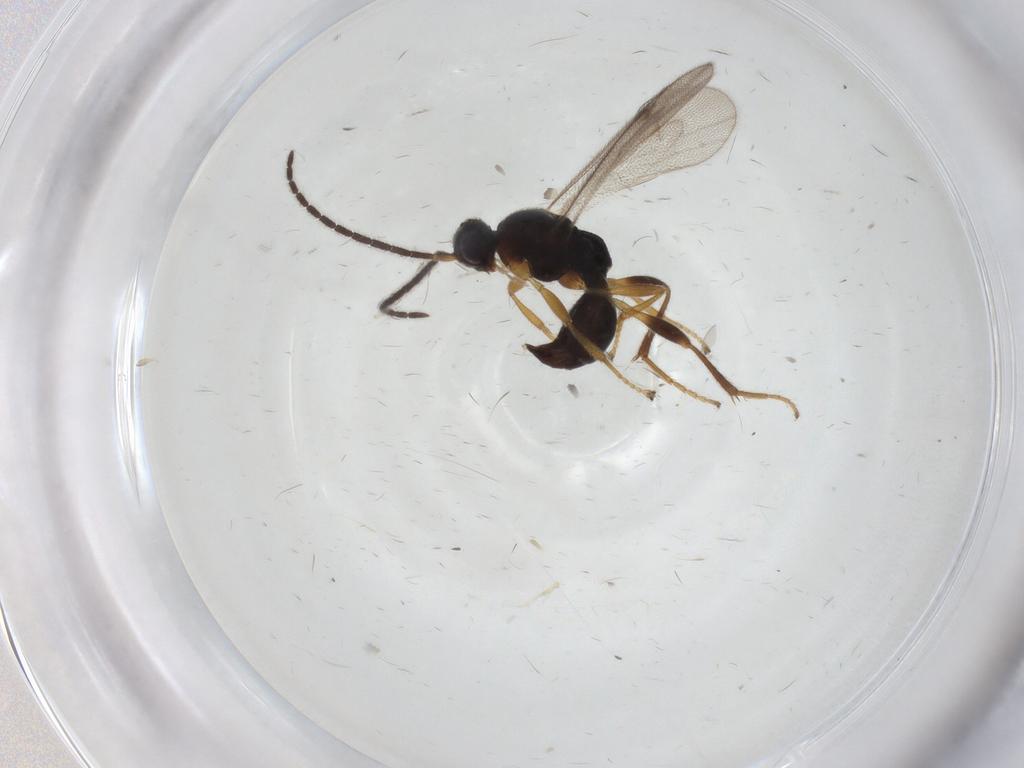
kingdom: Animalia
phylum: Arthropoda
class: Insecta
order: Hymenoptera
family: Proctotrupidae
